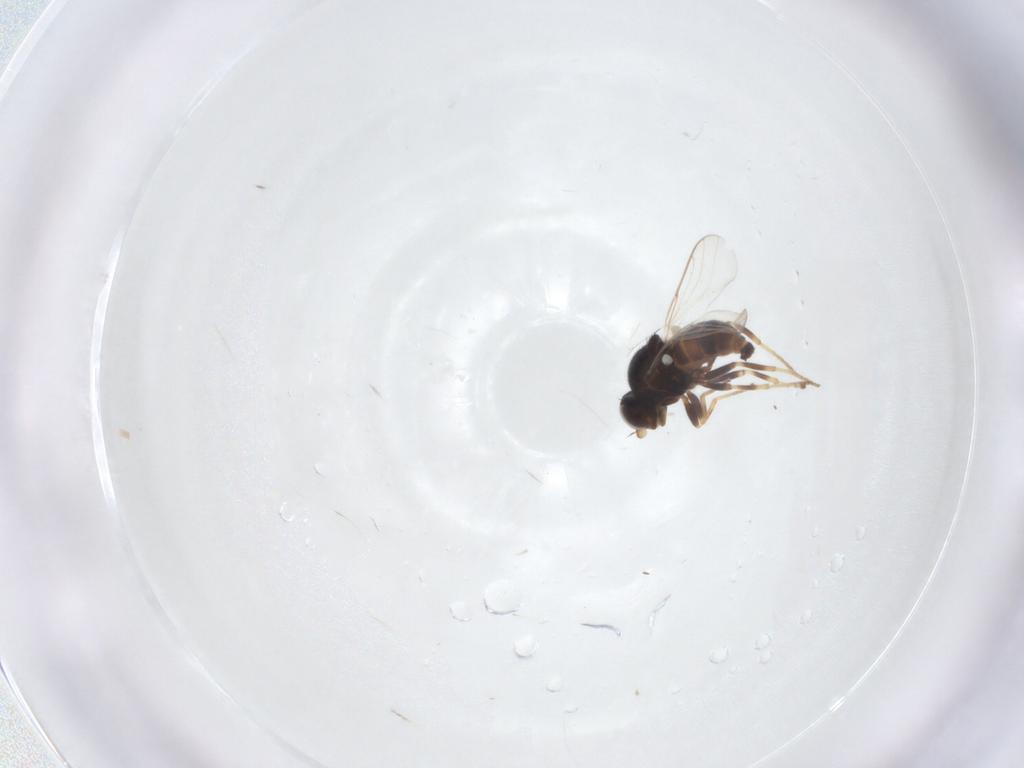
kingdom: Animalia
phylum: Arthropoda
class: Insecta
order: Diptera
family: Chloropidae
